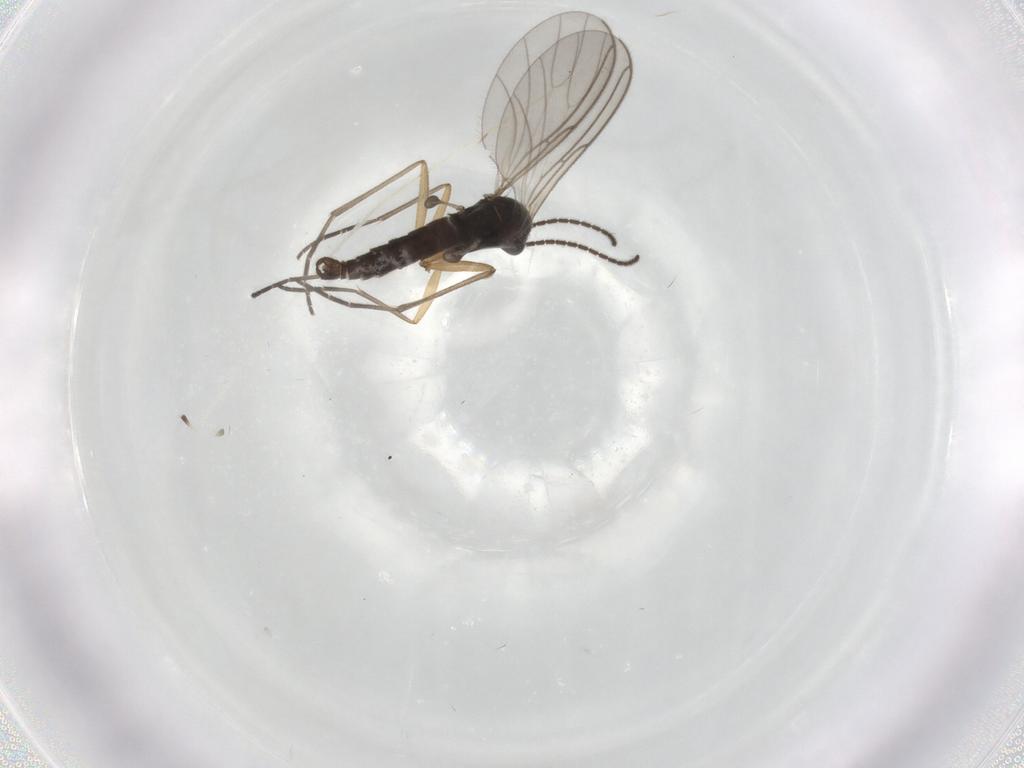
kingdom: Animalia
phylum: Arthropoda
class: Insecta
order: Diptera
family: Sciaridae
